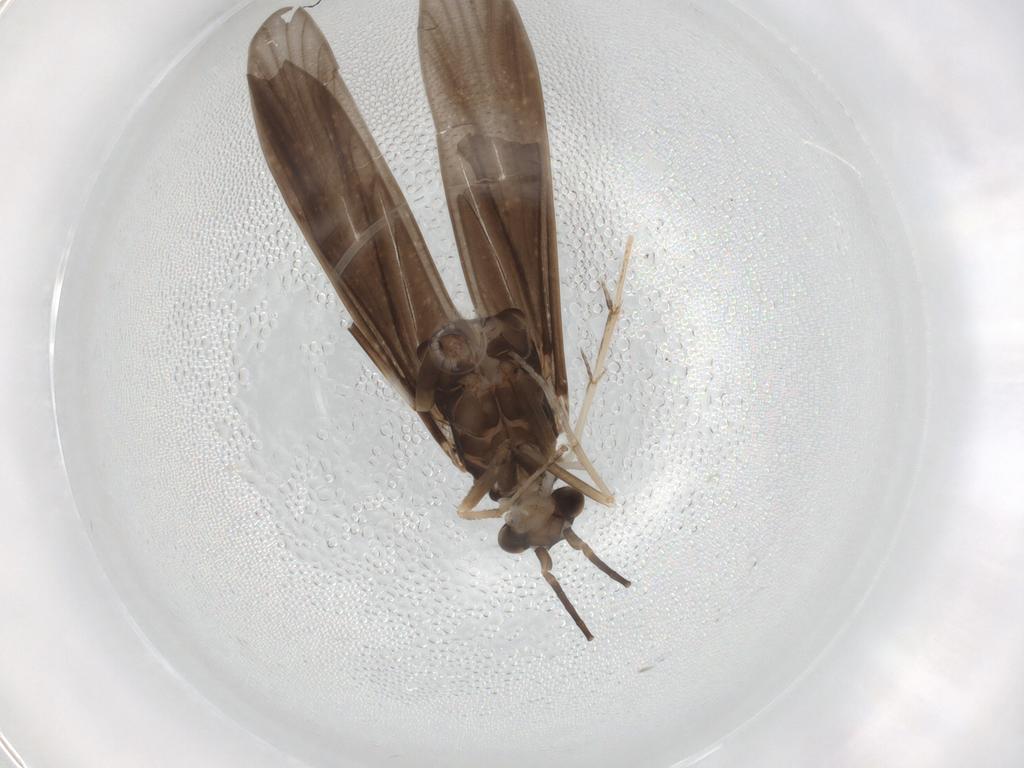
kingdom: Animalia
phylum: Arthropoda
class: Insecta
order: Trichoptera
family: Xiphocentronidae
